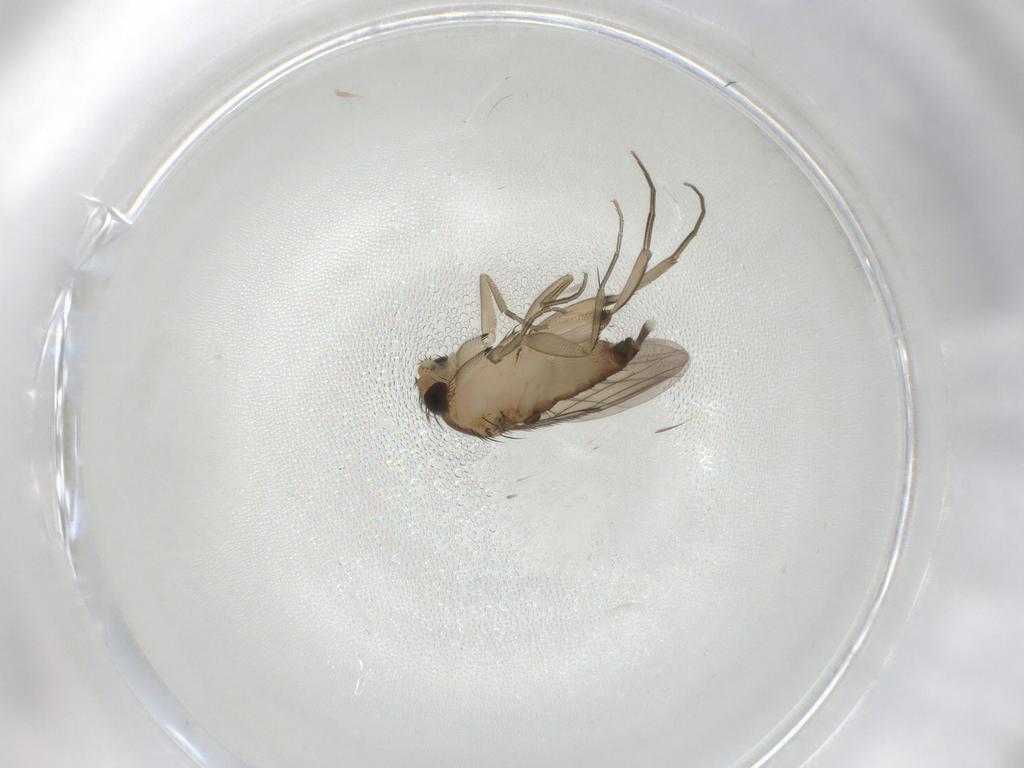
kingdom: Animalia
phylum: Arthropoda
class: Insecta
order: Diptera
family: Phoridae
